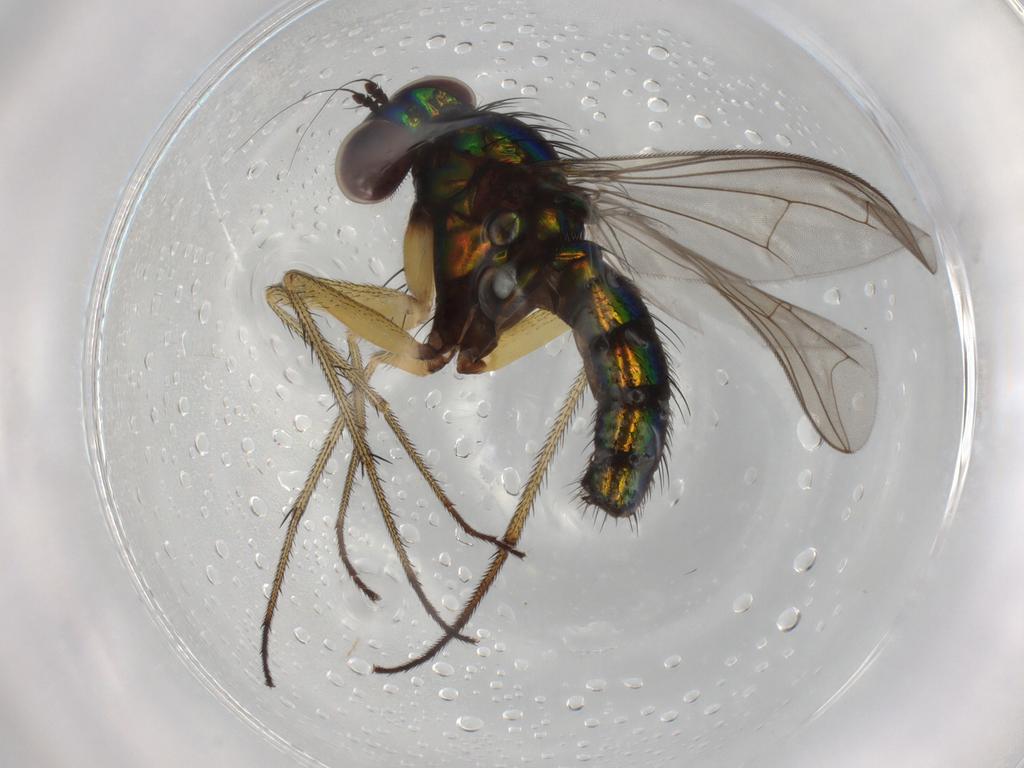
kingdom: Animalia
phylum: Arthropoda
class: Insecta
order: Diptera
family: Dolichopodidae
